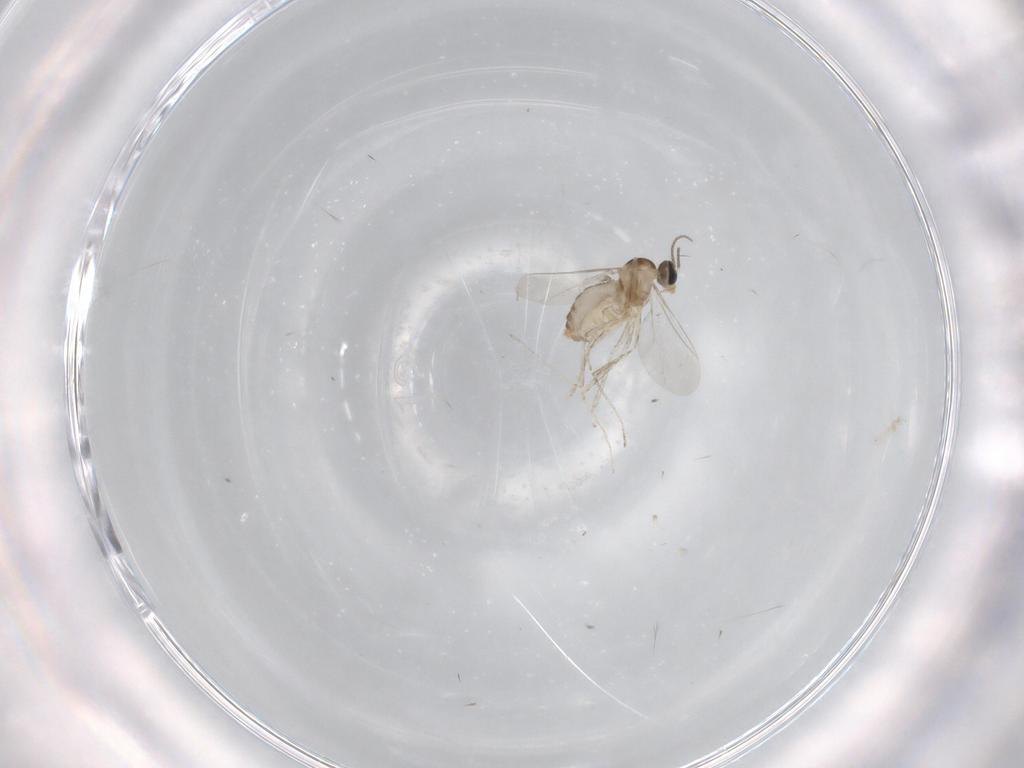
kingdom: Animalia
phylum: Arthropoda
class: Insecta
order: Diptera
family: Cecidomyiidae
